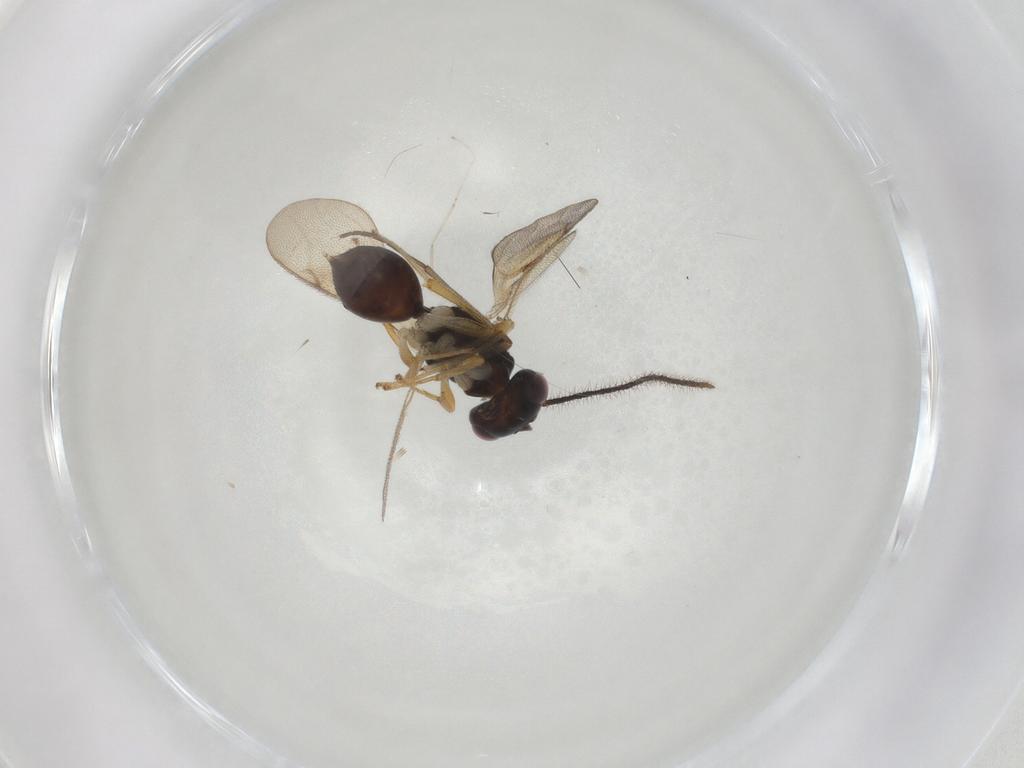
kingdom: Animalia
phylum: Arthropoda
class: Insecta
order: Hymenoptera
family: Diparidae
